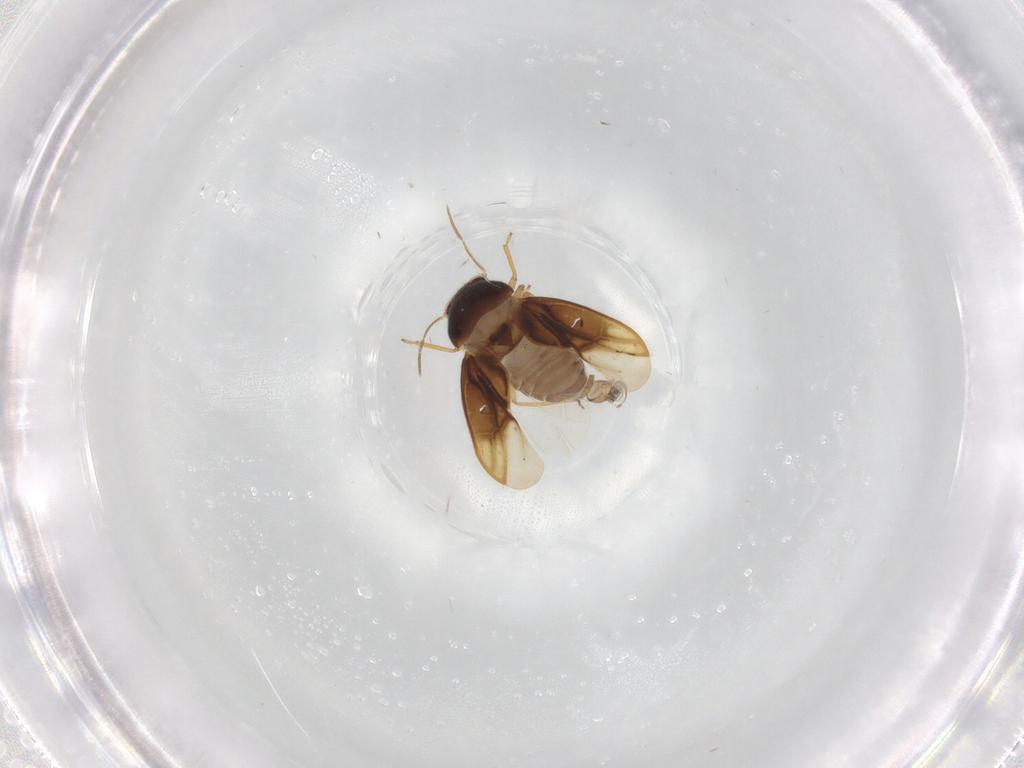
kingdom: Animalia
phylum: Arthropoda
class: Insecta
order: Hemiptera
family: Schizopteridae
